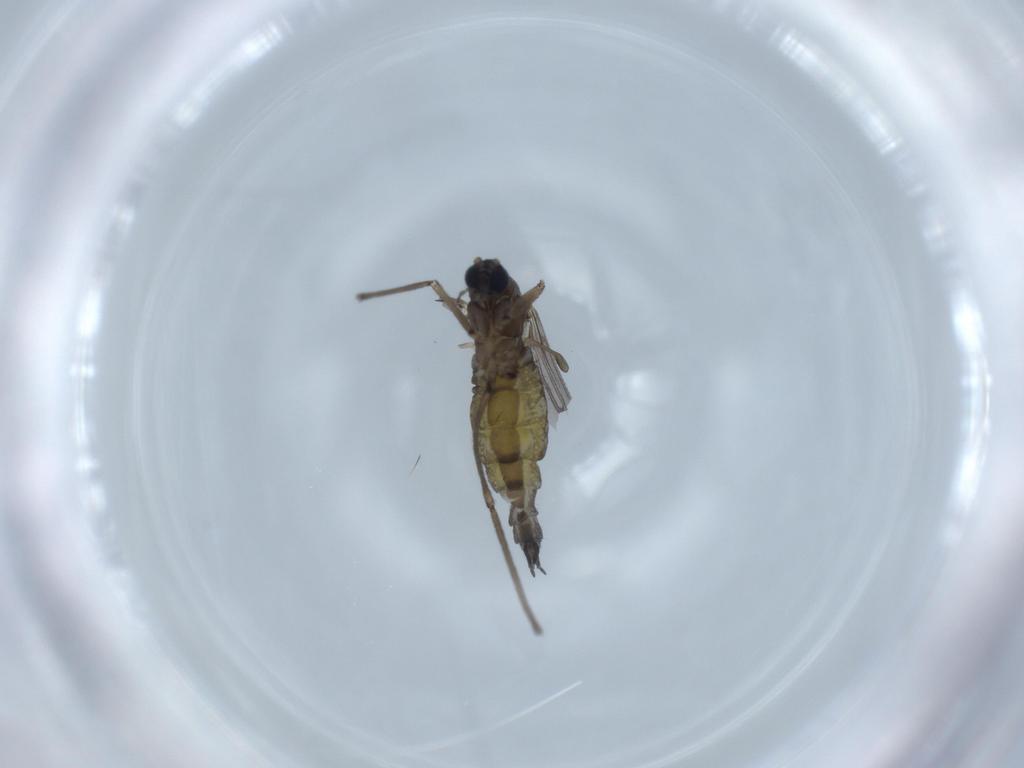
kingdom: Animalia
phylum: Arthropoda
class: Insecta
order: Diptera
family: Sciaridae
